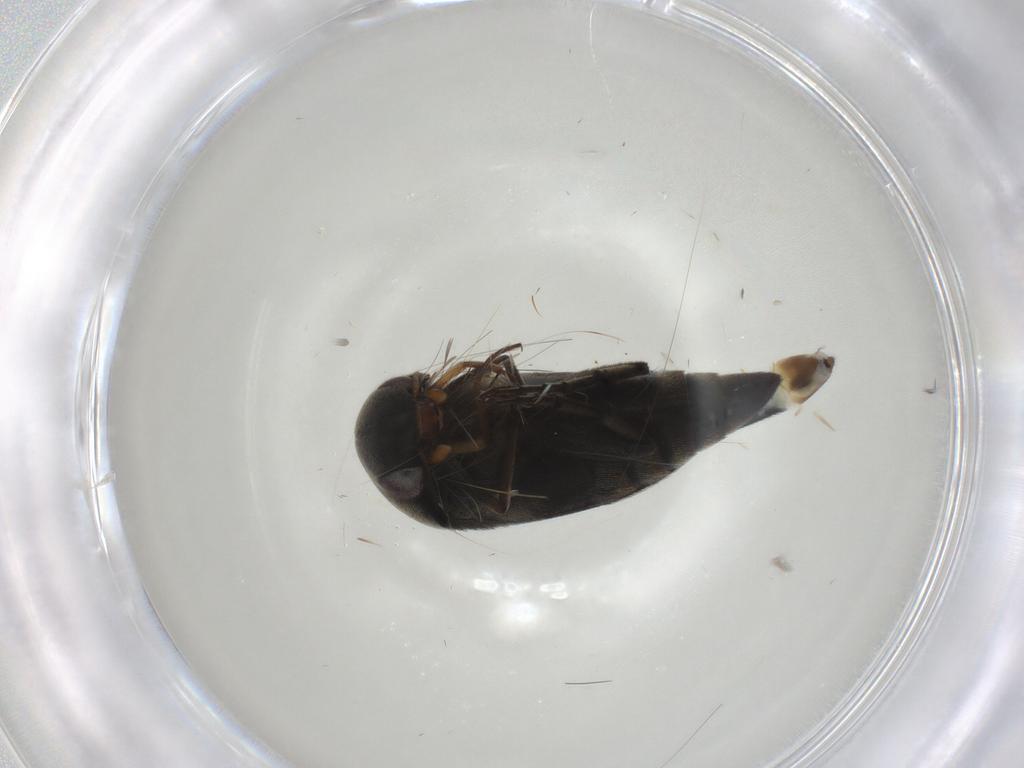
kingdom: Animalia
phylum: Arthropoda
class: Insecta
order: Coleoptera
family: Mordellidae
